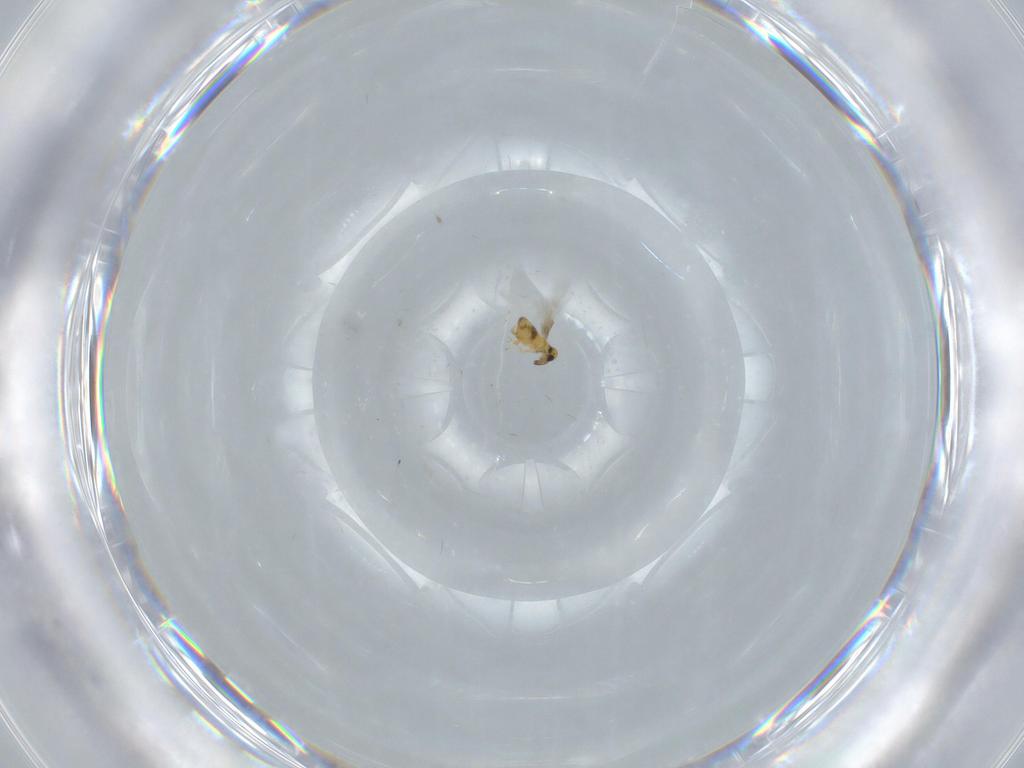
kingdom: Animalia
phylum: Arthropoda
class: Insecta
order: Hymenoptera
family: Signiphoridae
